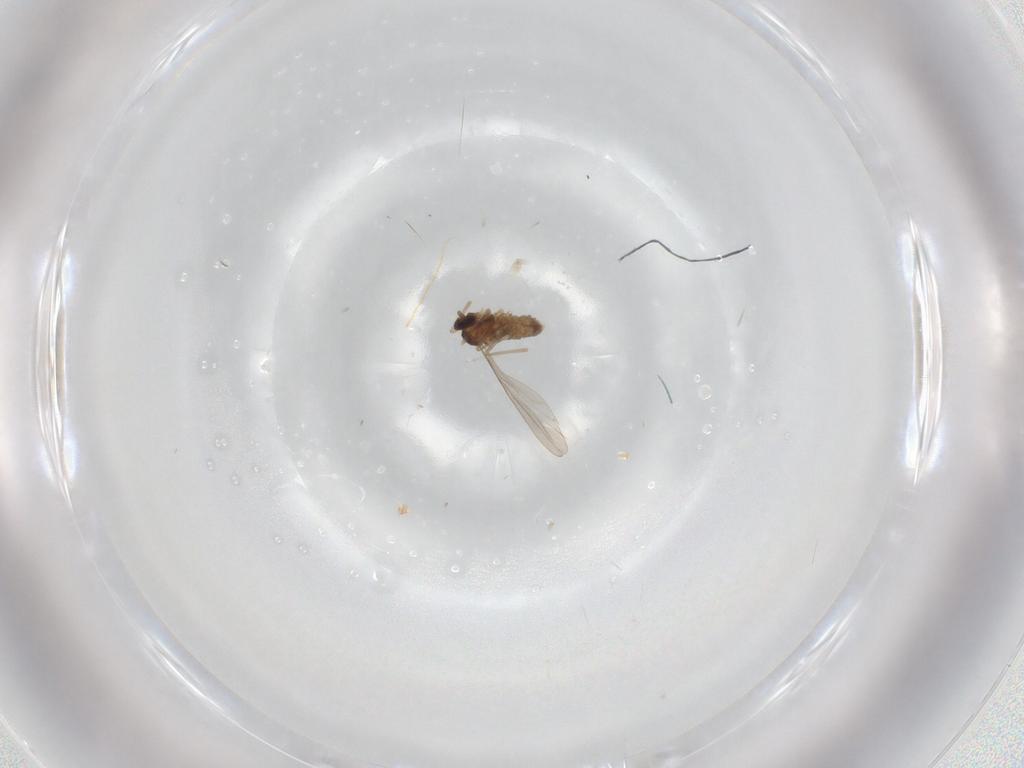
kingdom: Animalia
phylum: Arthropoda
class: Insecta
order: Diptera
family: Cecidomyiidae
